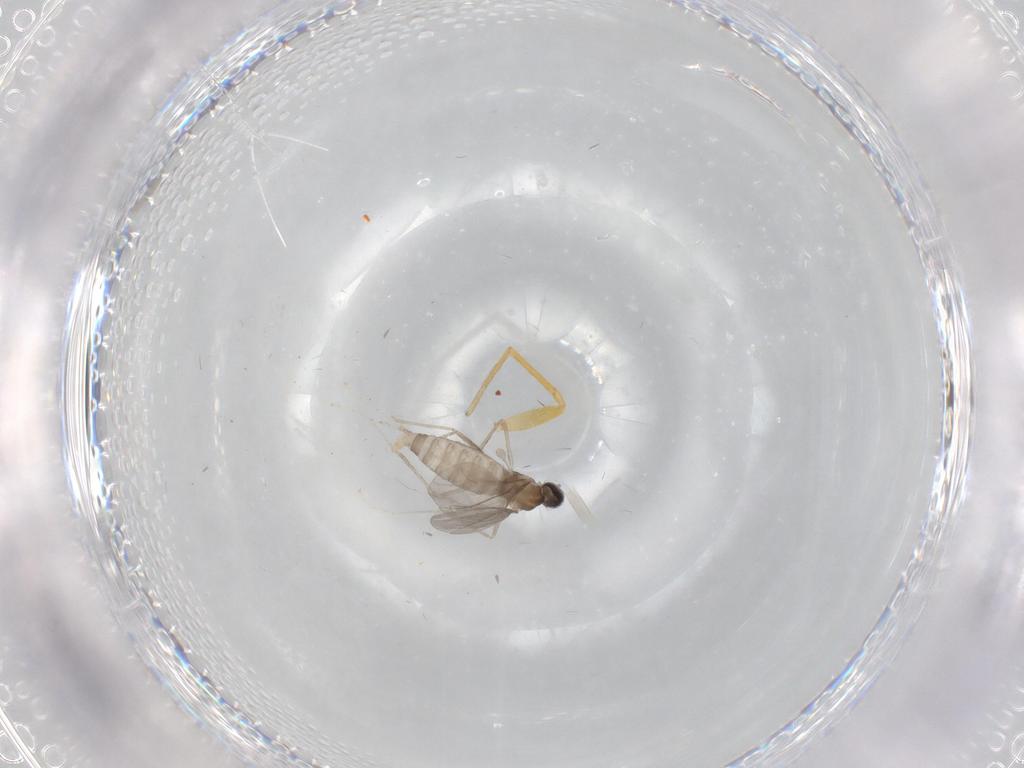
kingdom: Animalia
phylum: Arthropoda
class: Insecta
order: Diptera
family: Cecidomyiidae
